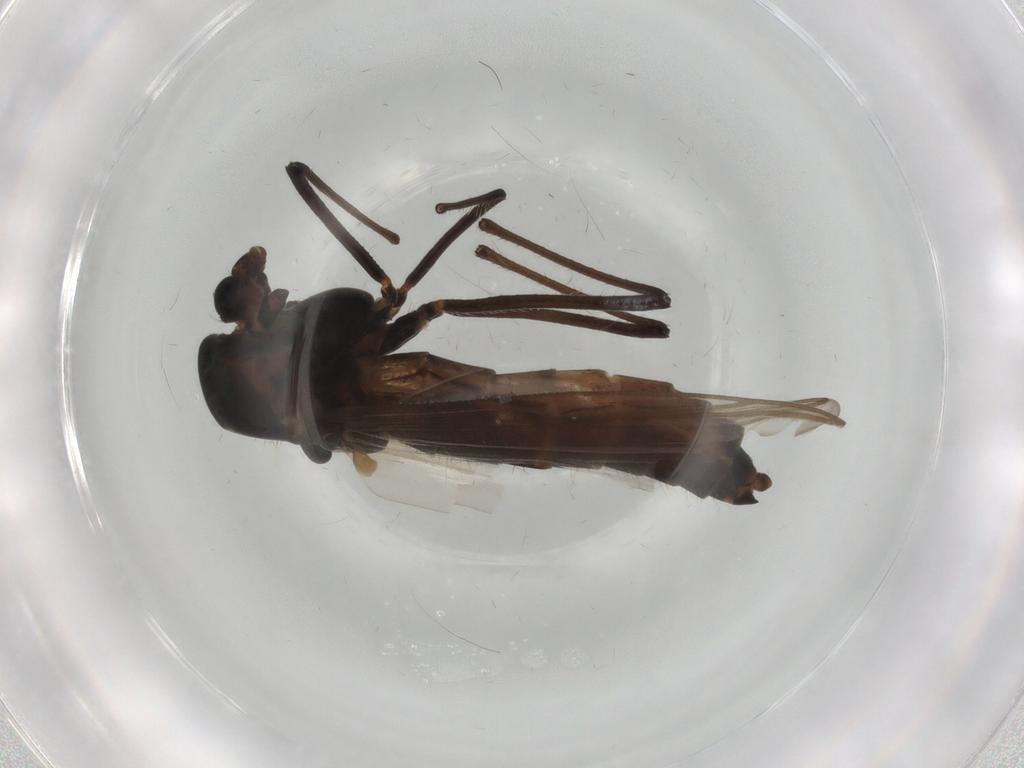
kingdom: Animalia
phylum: Arthropoda
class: Insecta
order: Diptera
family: Chironomidae
